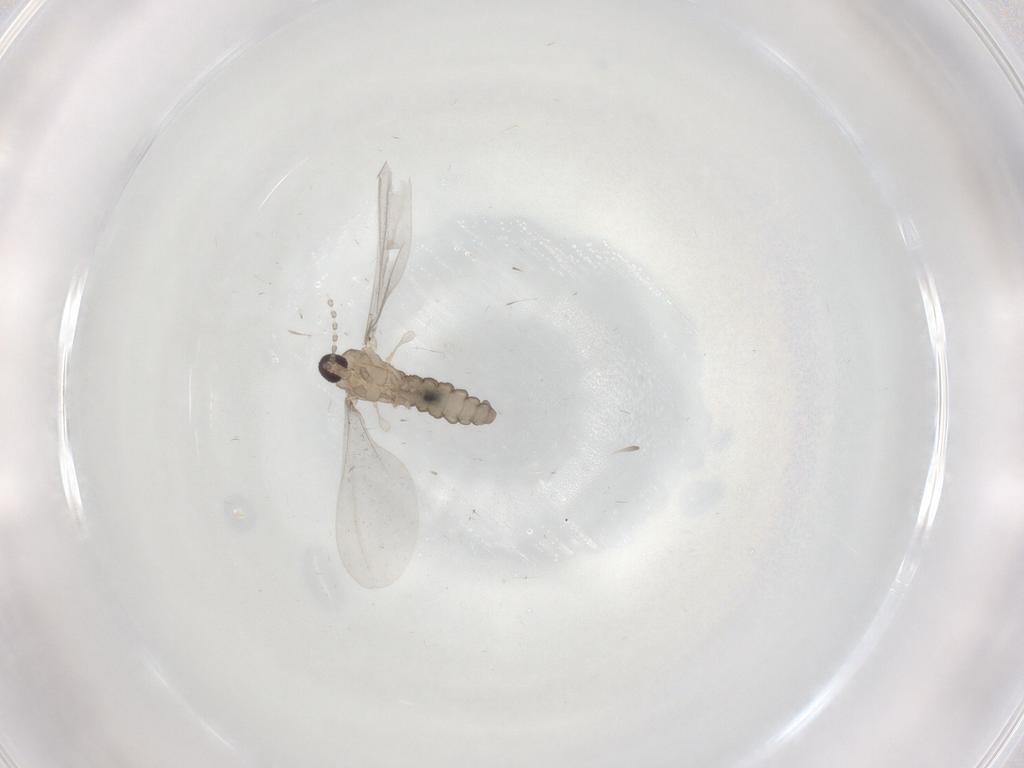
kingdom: Animalia
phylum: Arthropoda
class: Insecta
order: Diptera
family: Cecidomyiidae
